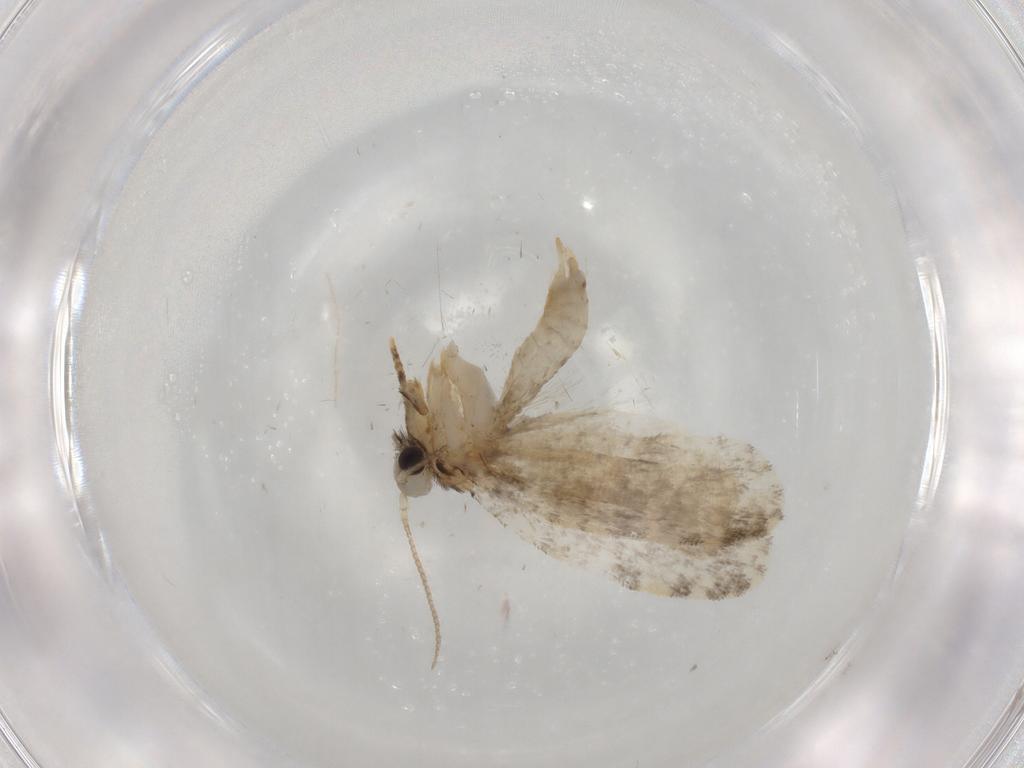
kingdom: Animalia
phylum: Arthropoda
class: Insecta
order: Lepidoptera
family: Psychidae
